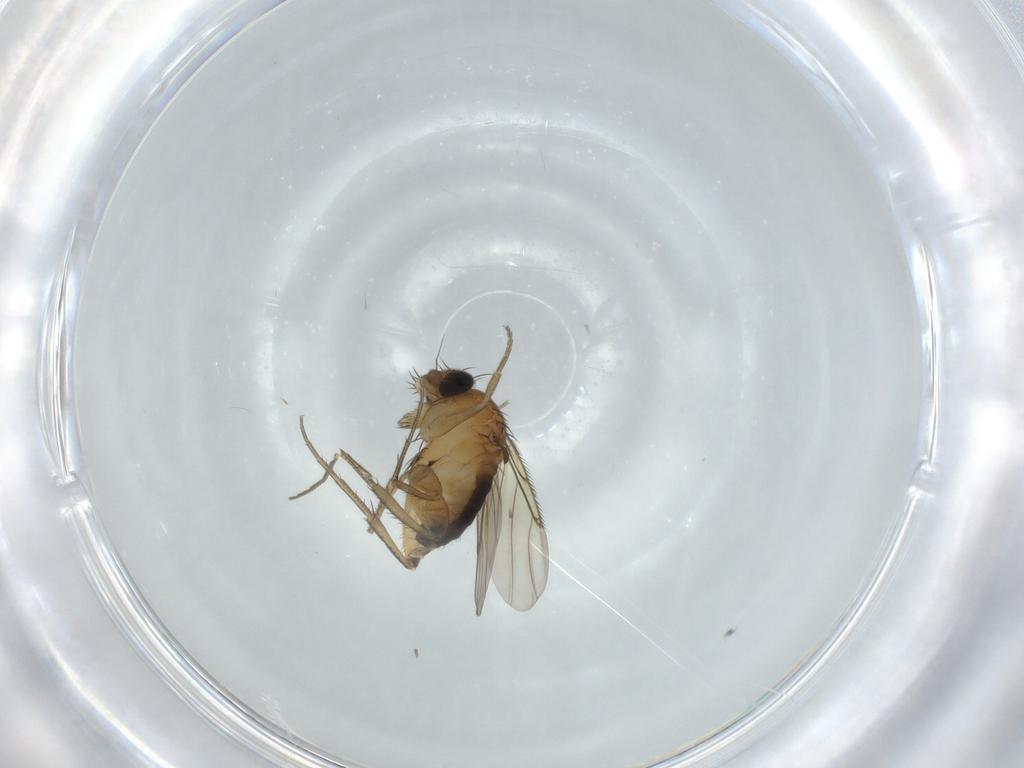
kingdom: Animalia
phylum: Arthropoda
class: Insecta
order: Diptera
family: Phoridae
